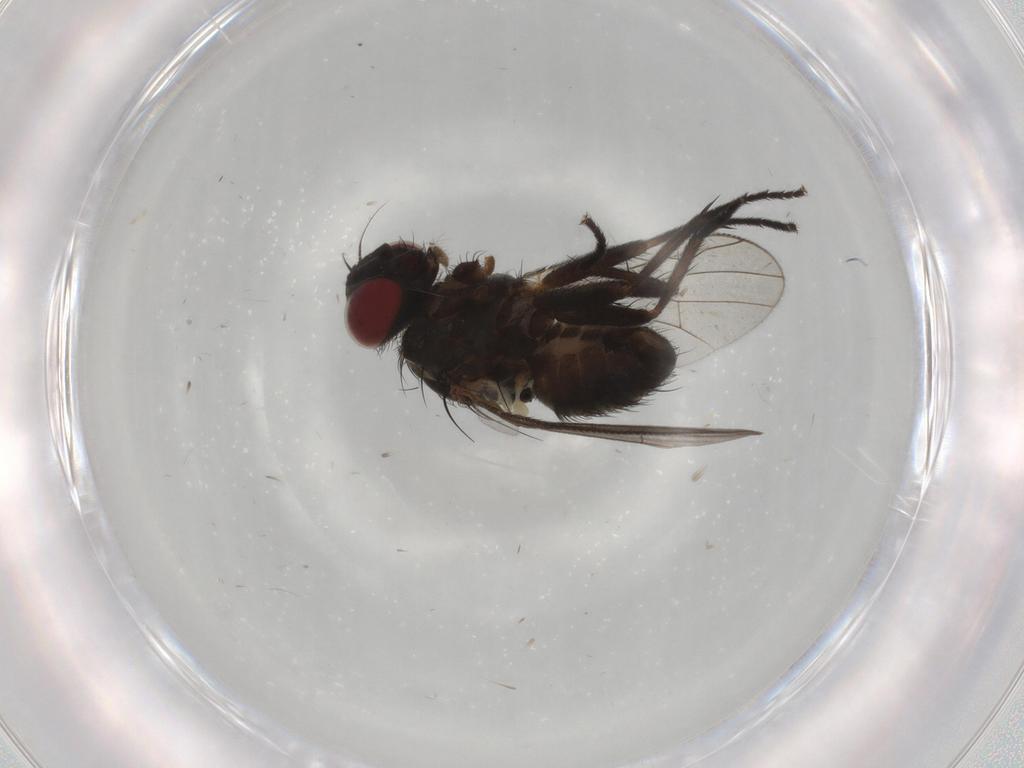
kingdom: Animalia
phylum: Arthropoda
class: Insecta
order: Diptera
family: Muscidae
